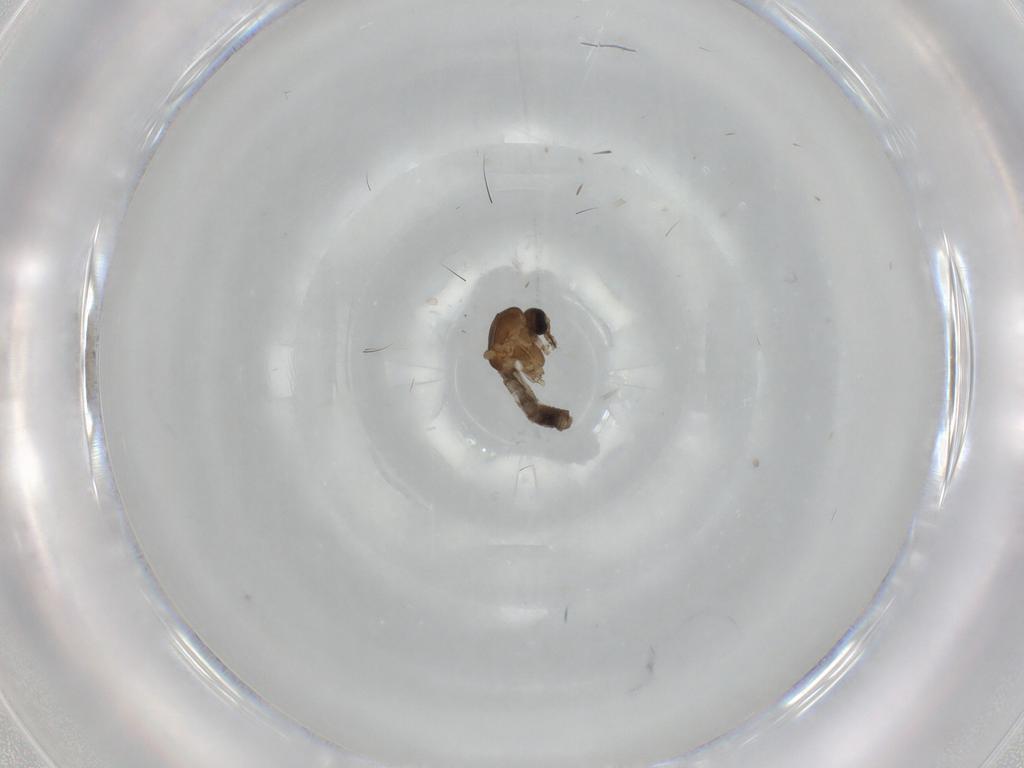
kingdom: Animalia
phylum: Arthropoda
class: Insecta
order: Diptera
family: Ceratopogonidae
